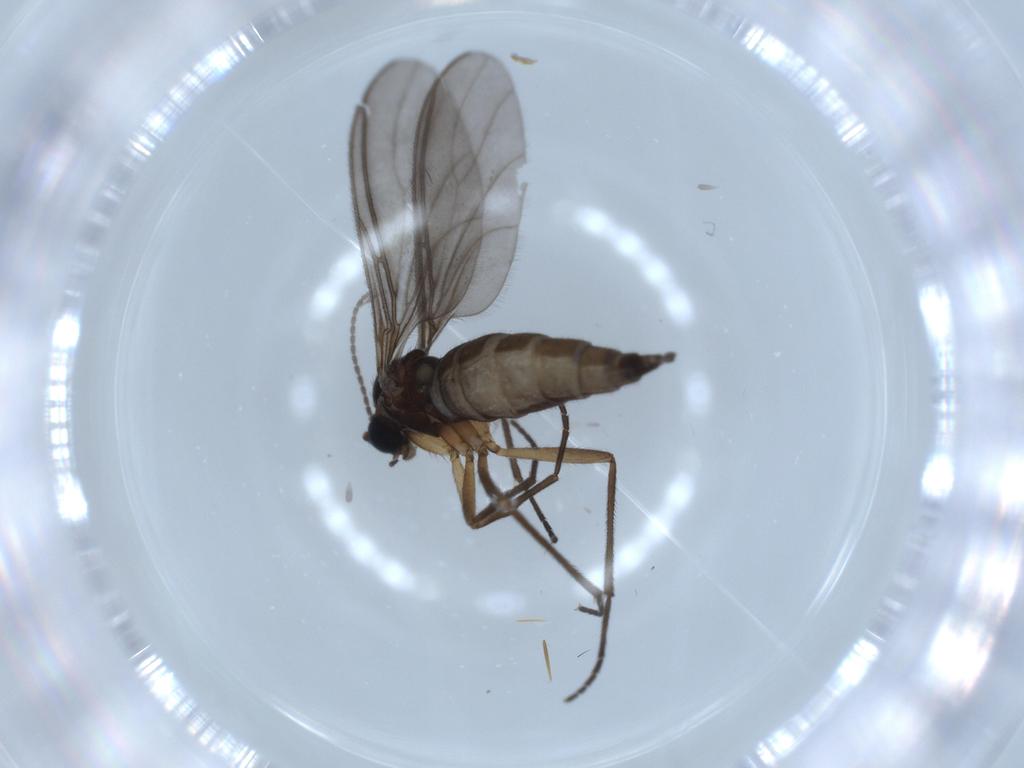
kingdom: Animalia
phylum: Arthropoda
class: Insecta
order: Diptera
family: Sciaridae
